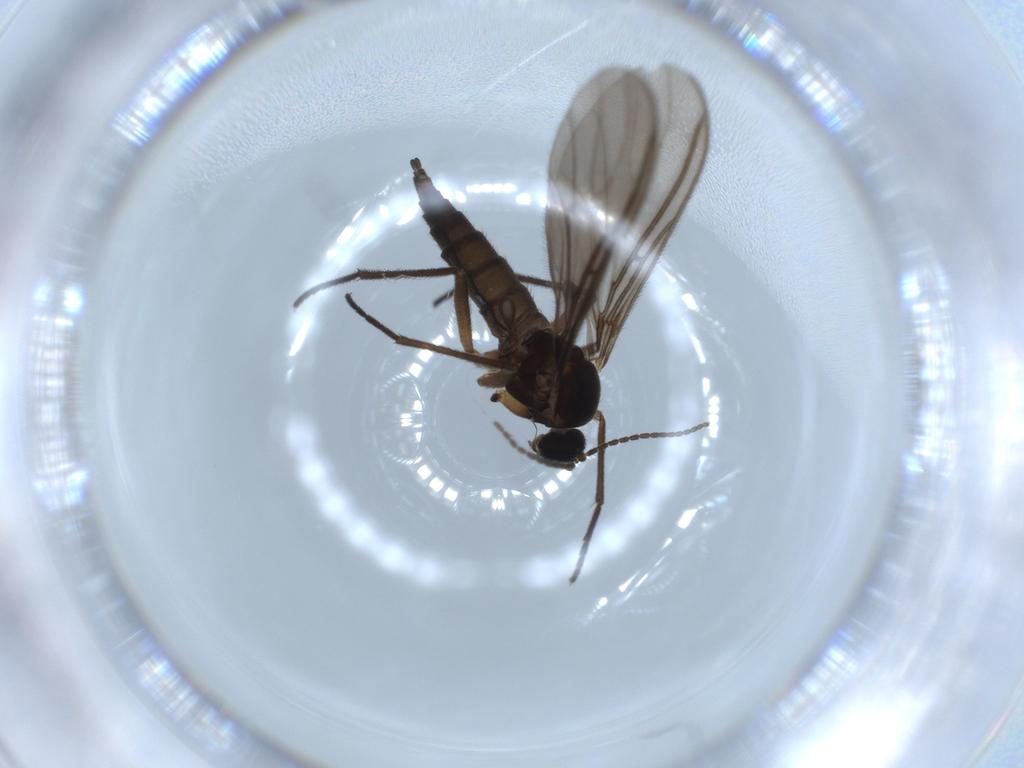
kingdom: Animalia
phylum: Arthropoda
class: Insecta
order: Diptera
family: Sciaridae
